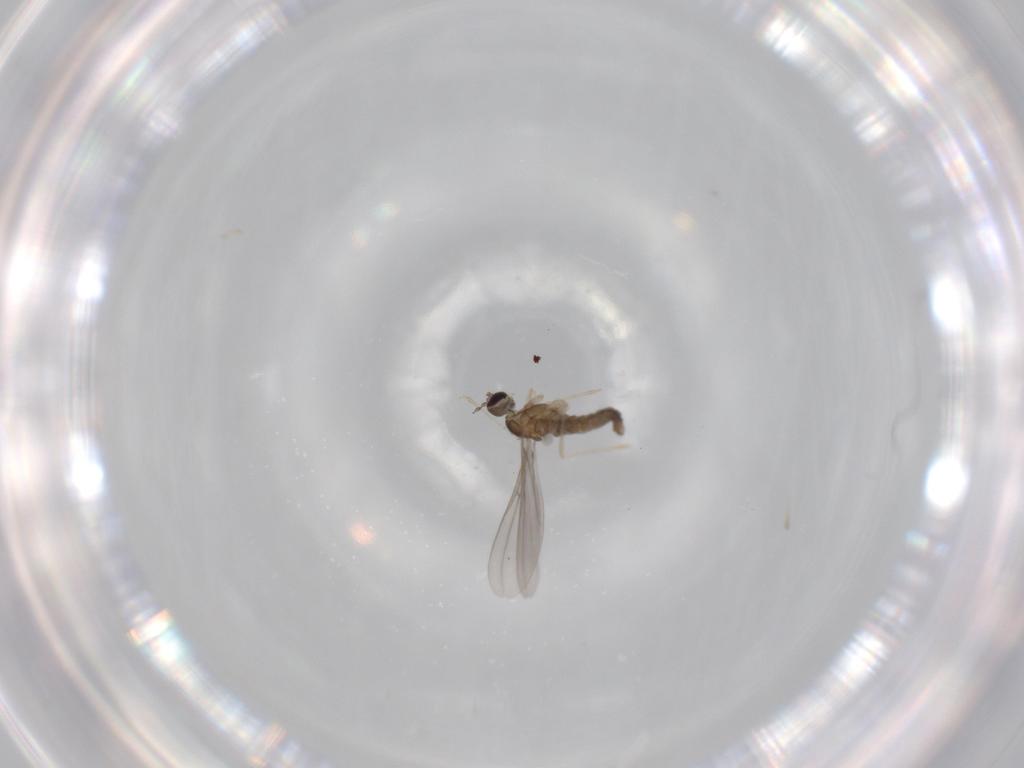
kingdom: Animalia
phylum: Arthropoda
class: Insecta
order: Diptera
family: Cecidomyiidae
